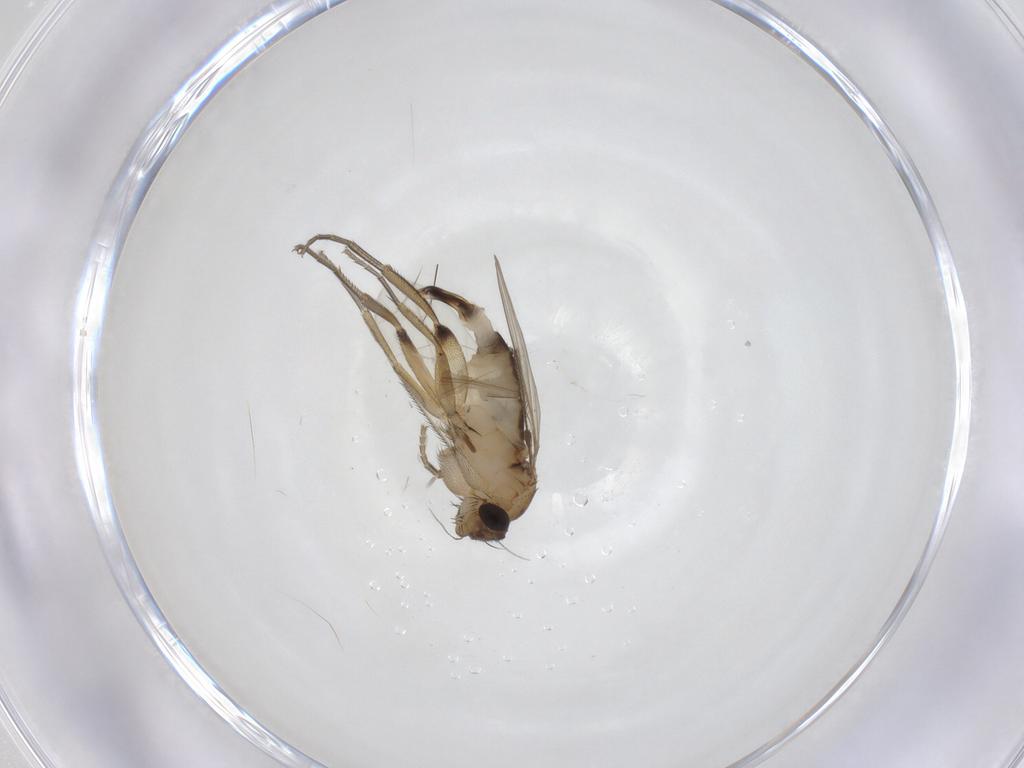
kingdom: Animalia
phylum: Arthropoda
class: Insecta
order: Diptera
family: Phoridae
